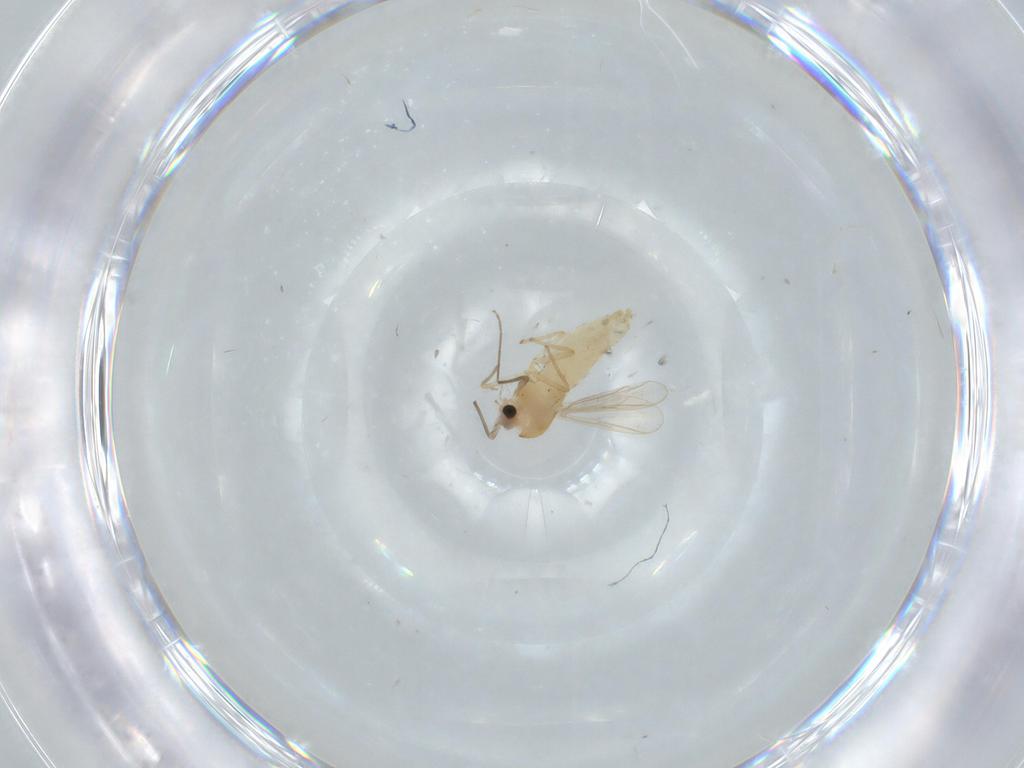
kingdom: Animalia
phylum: Arthropoda
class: Insecta
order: Diptera
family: Chironomidae
